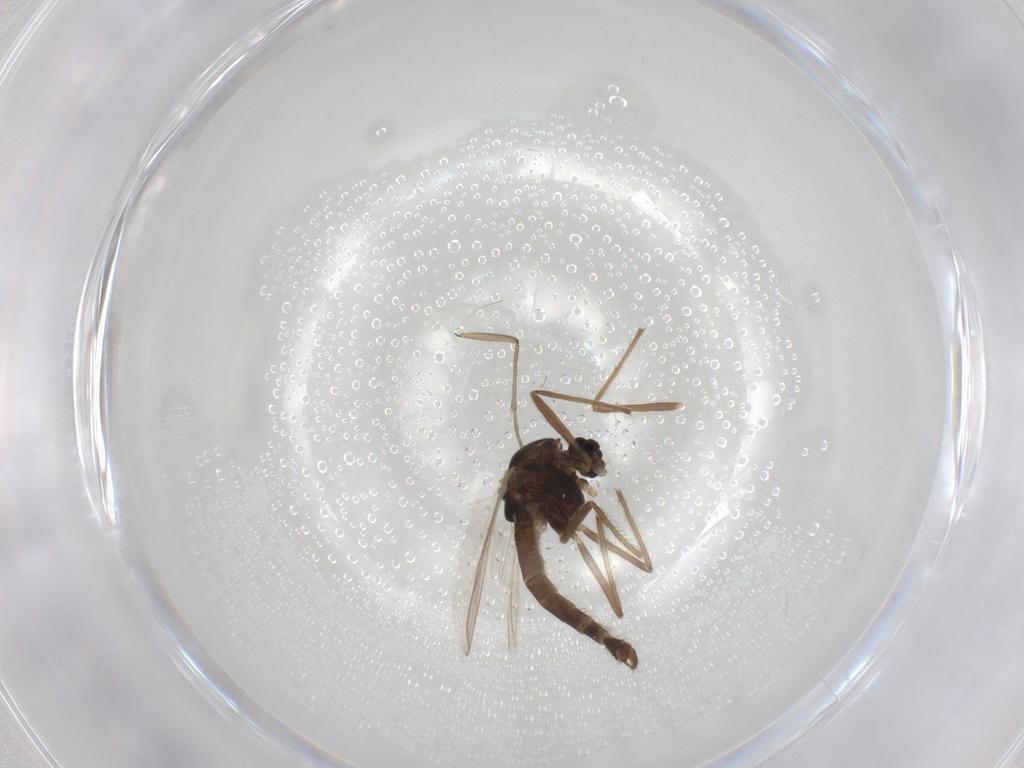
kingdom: Animalia
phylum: Arthropoda
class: Insecta
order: Diptera
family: Chironomidae
